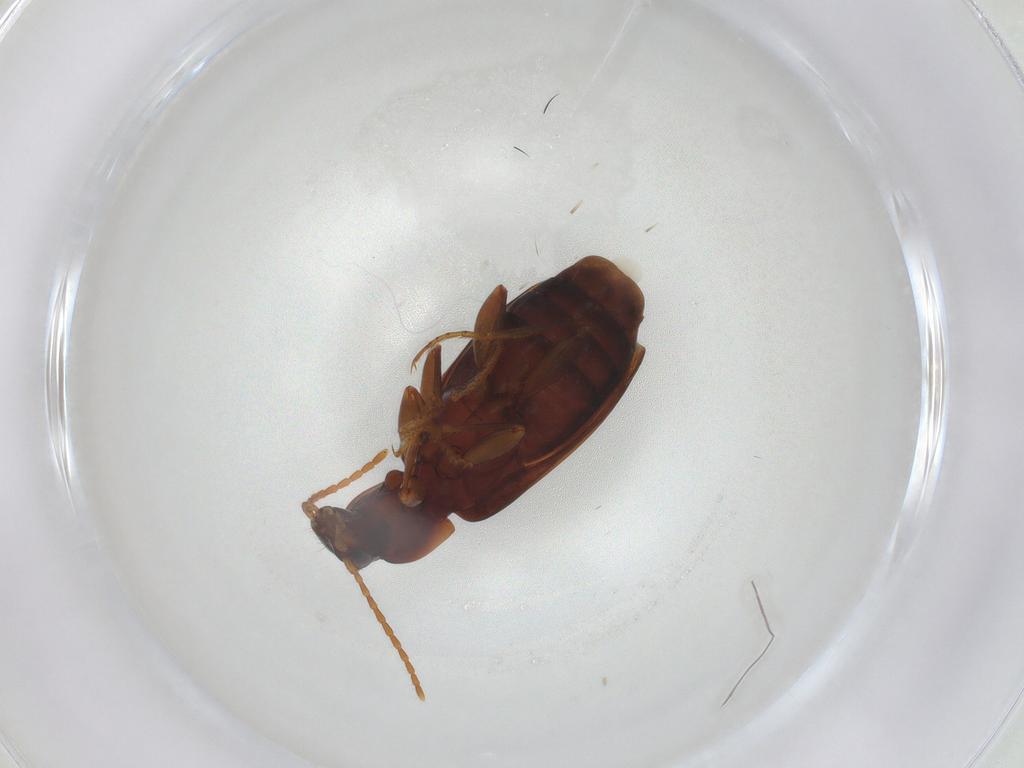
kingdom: Animalia
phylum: Arthropoda
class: Insecta
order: Coleoptera
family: Carabidae
